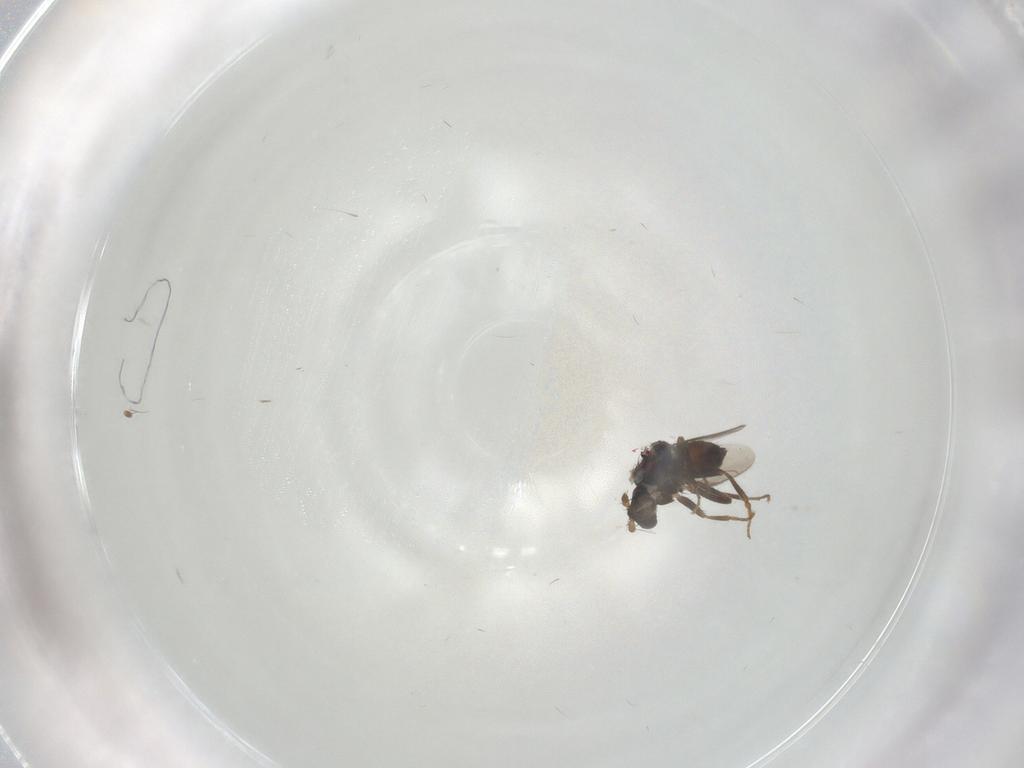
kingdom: Animalia
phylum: Arthropoda
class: Insecta
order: Diptera
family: Sphaeroceridae
